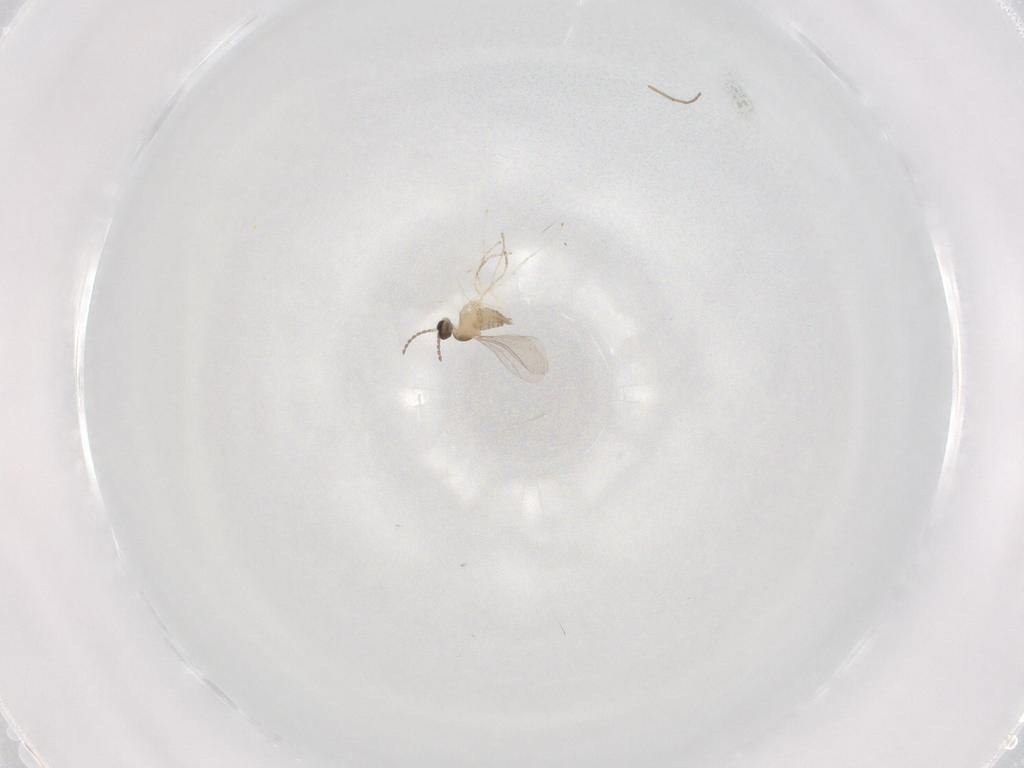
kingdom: Animalia
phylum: Arthropoda
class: Insecta
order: Diptera
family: Cecidomyiidae
